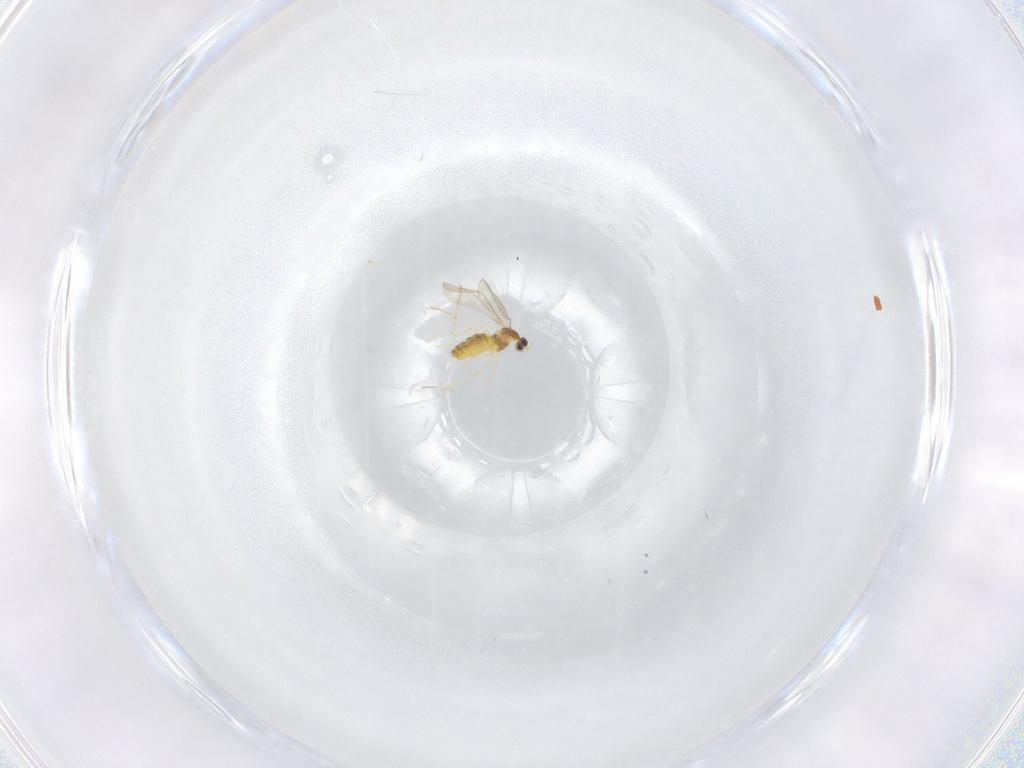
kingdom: Animalia
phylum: Arthropoda
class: Insecta
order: Diptera
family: Cecidomyiidae
